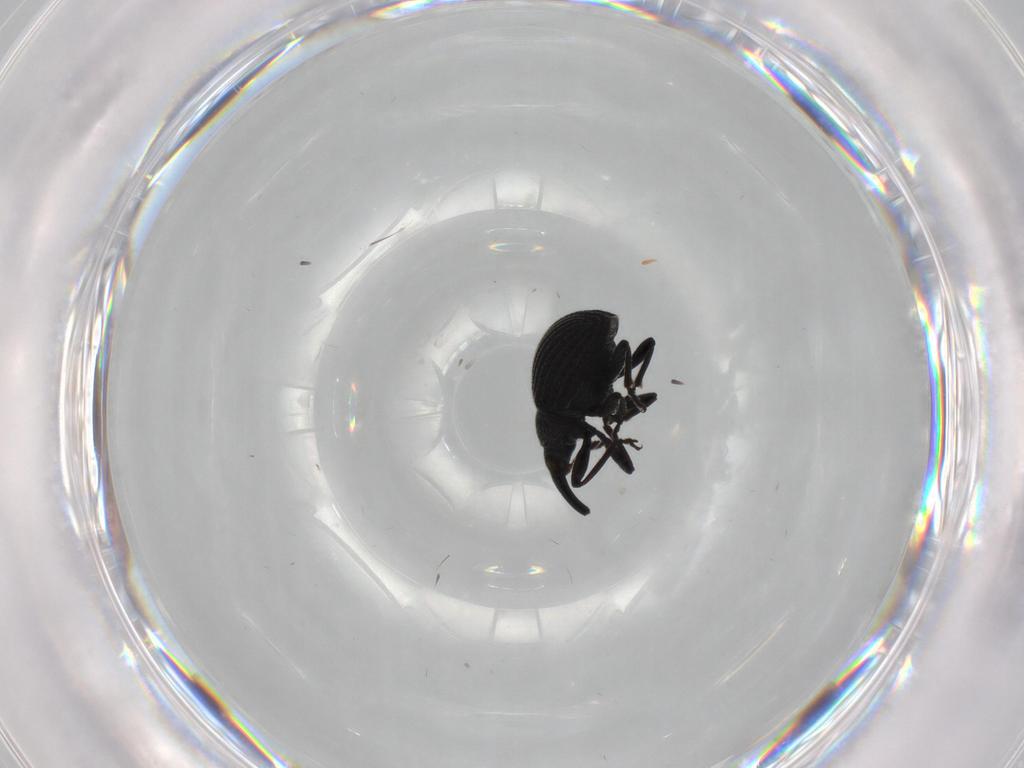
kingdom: Animalia
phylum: Arthropoda
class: Insecta
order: Coleoptera
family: Brentidae
